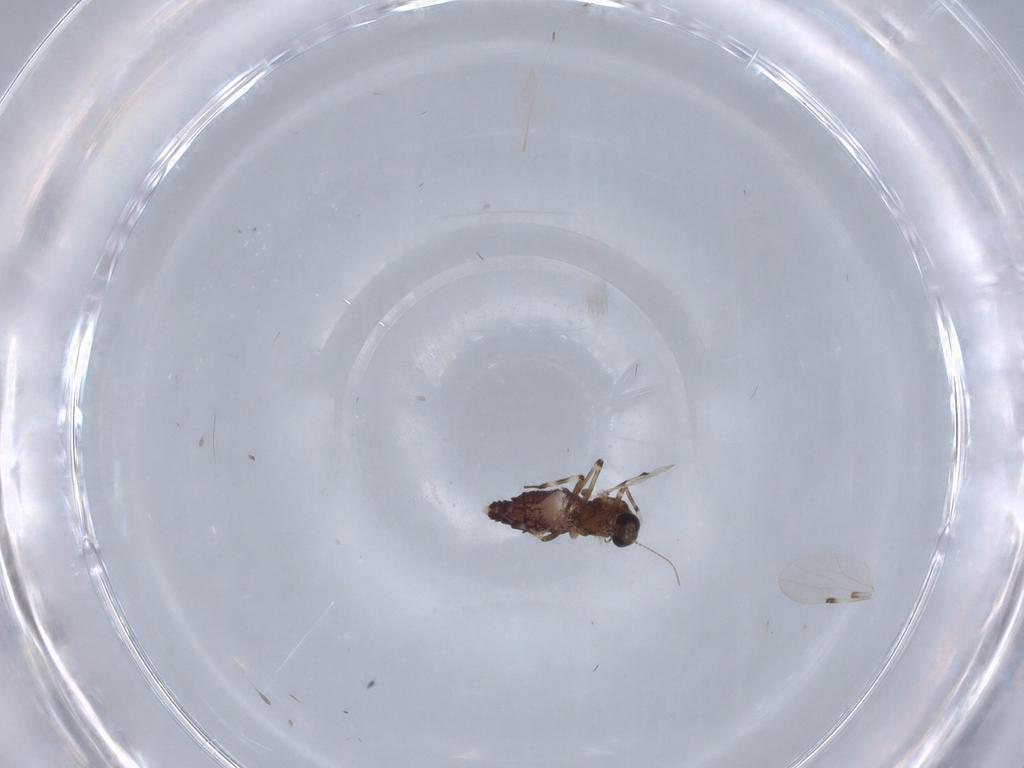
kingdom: Animalia
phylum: Arthropoda
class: Insecta
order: Diptera
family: Ceratopogonidae
